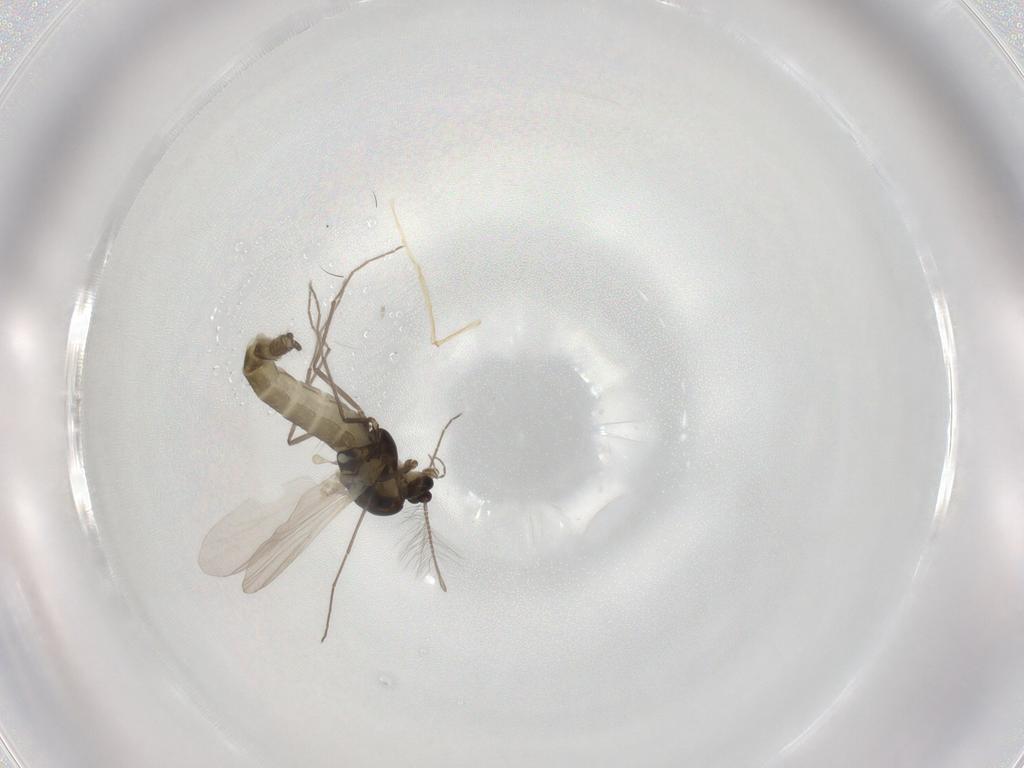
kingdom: Animalia
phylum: Arthropoda
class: Insecta
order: Diptera
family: Chironomidae
